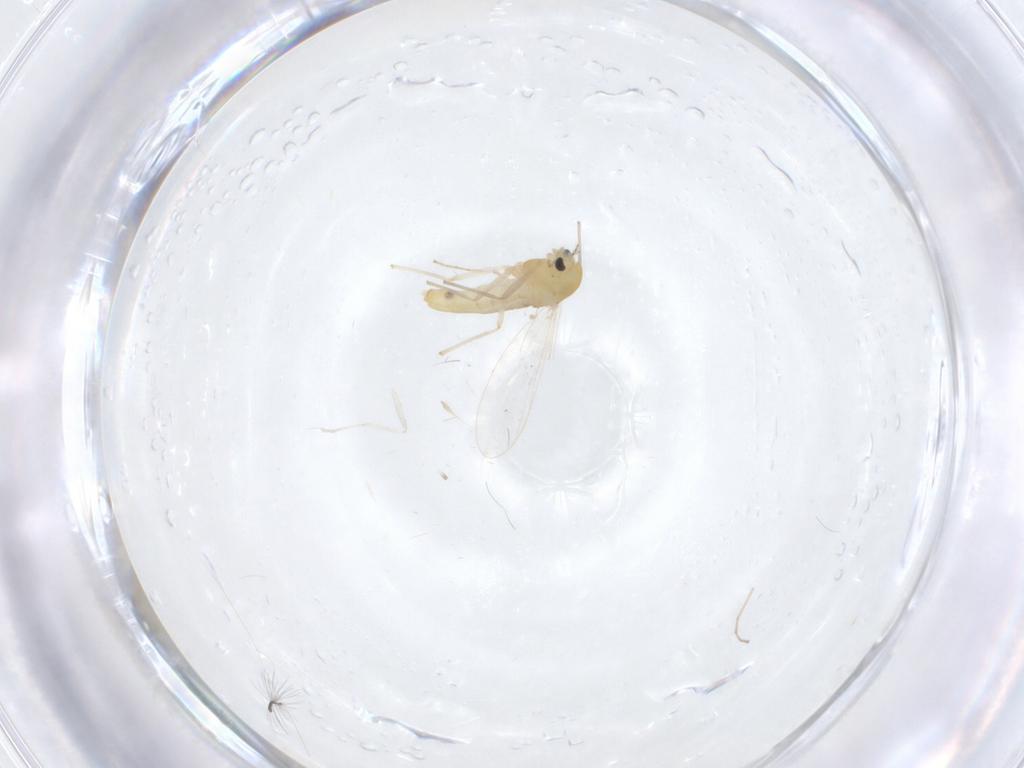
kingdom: Animalia
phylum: Arthropoda
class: Insecta
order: Diptera
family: Chironomidae
